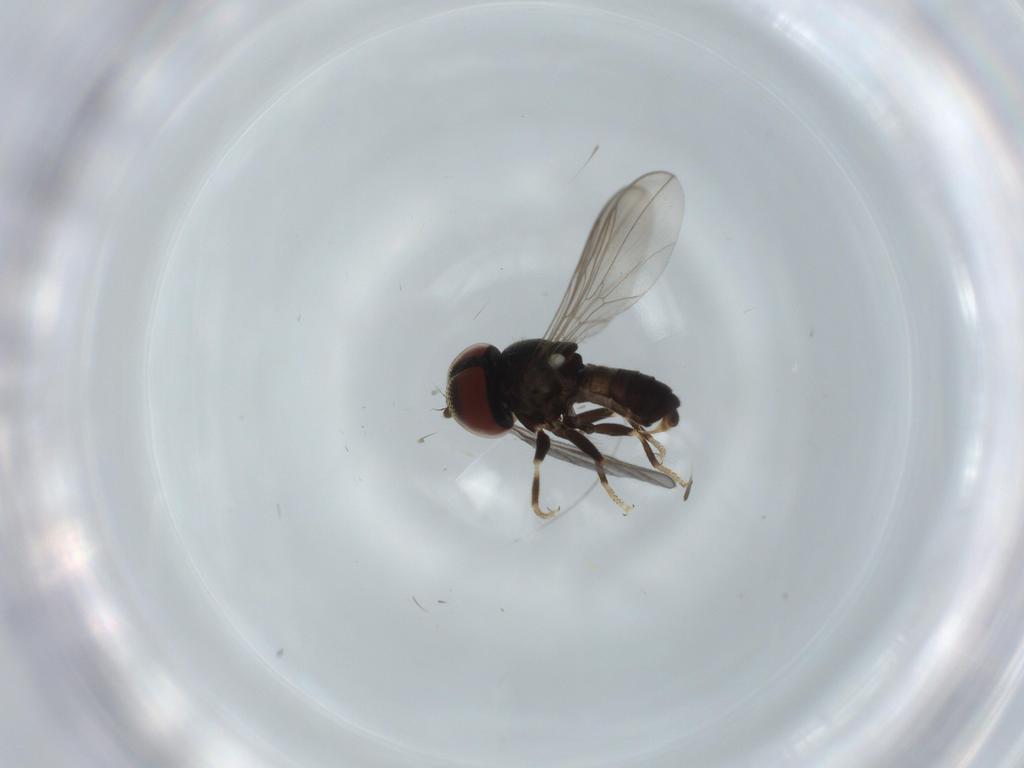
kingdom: Animalia
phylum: Arthropoda
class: Insecta
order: Diptera
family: Pipunculidae
